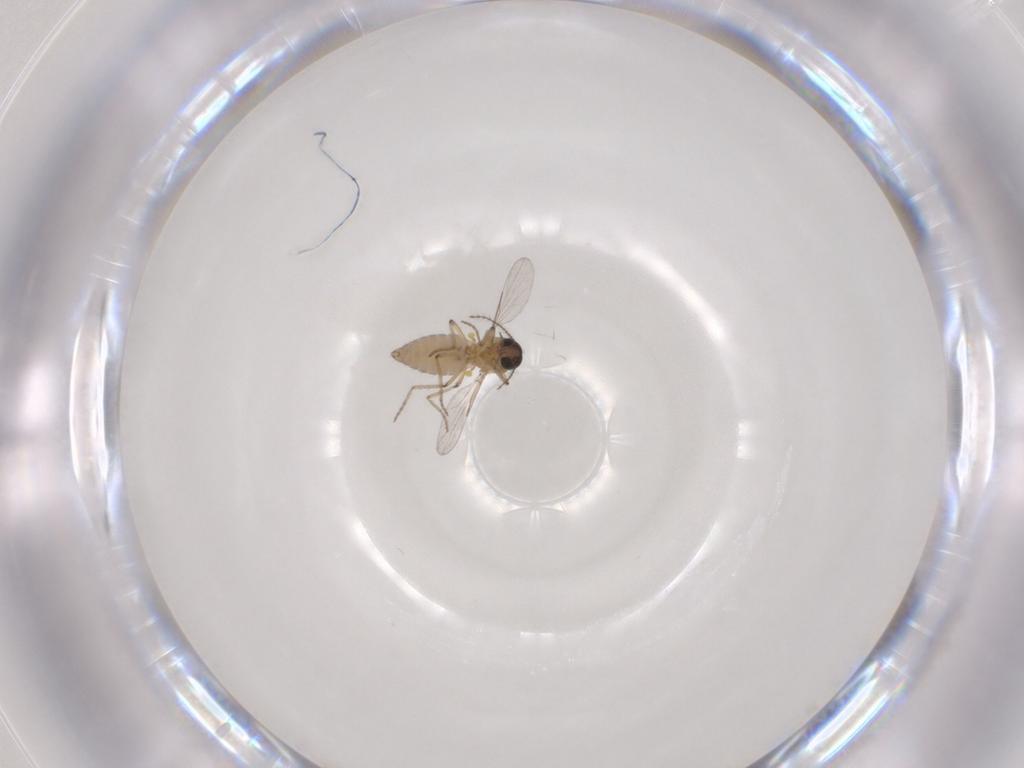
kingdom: Animalia
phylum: Arthropoda
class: Insecta
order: Diptera
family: Ceratopogonidae
